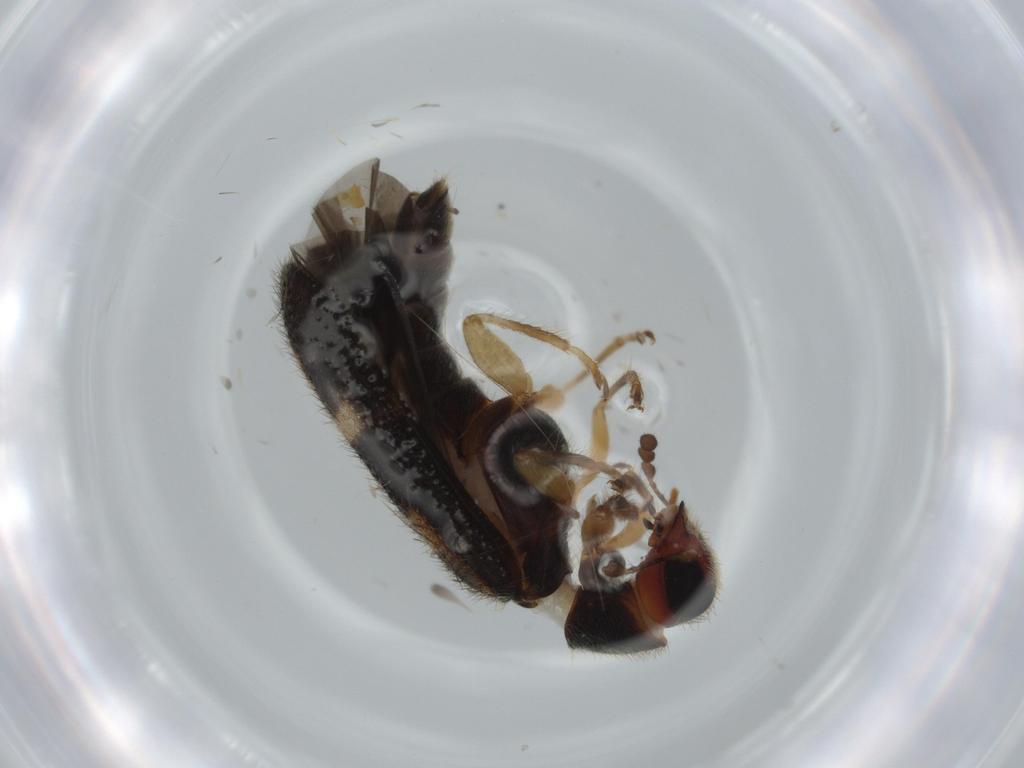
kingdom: Animalia
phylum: Arthropoda
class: Insecta
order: Coleoptera
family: Cleridae
